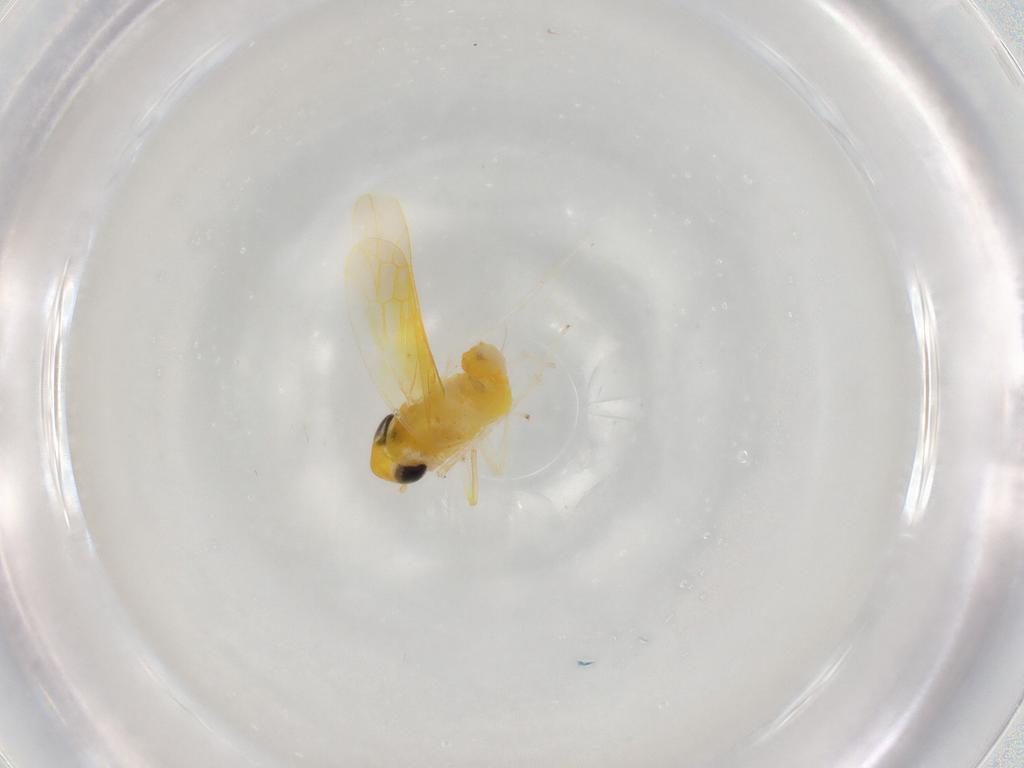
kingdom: Animalia
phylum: Arthropoda
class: Insecta
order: Hemiptera
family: Cicadellidae
